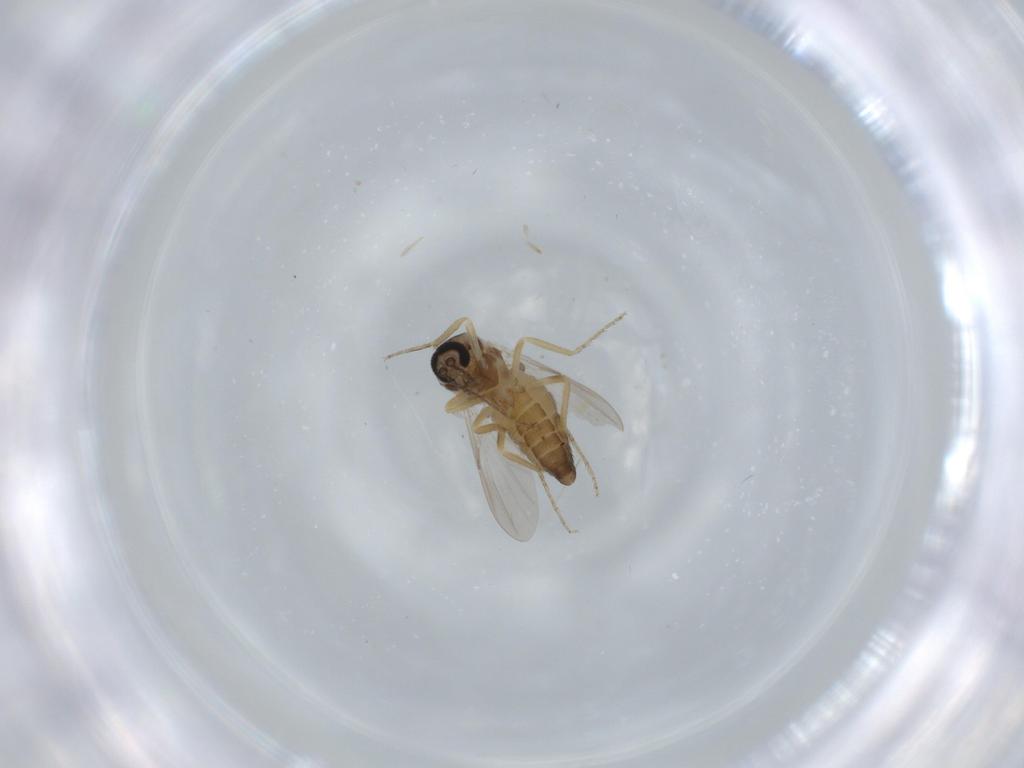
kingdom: Animalia
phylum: Arthropoda
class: Insecta
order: Diptera
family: Ceratopogonidae
